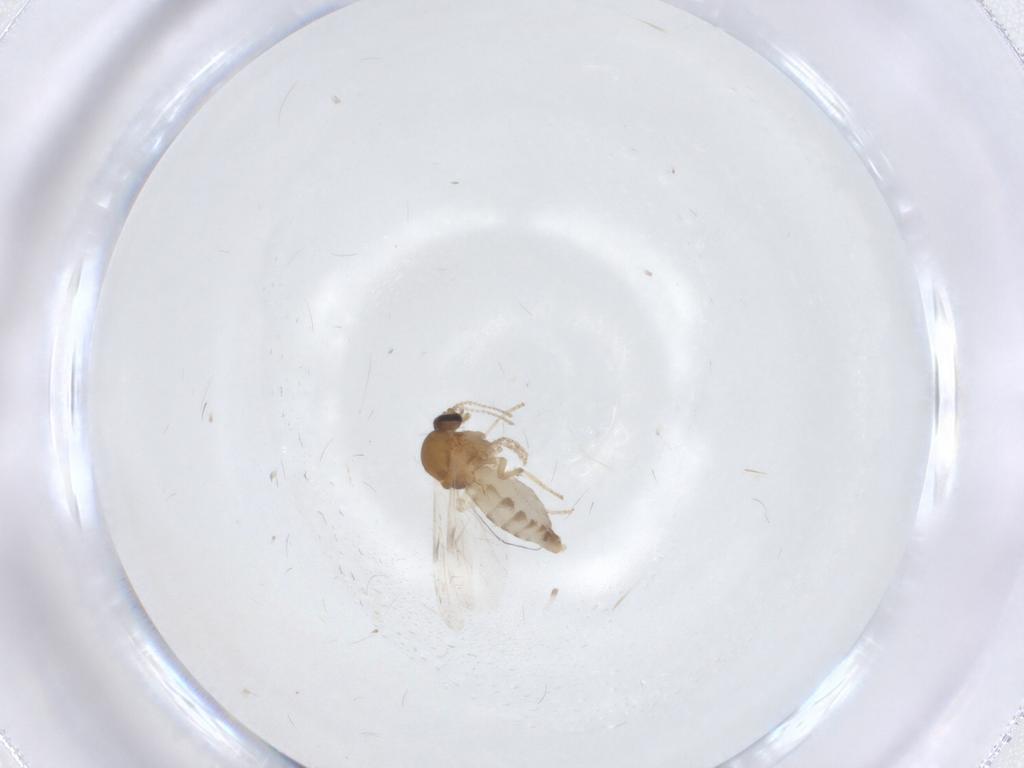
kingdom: Animalia
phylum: Arthropoda
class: Insecta
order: Diptera
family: Ceratopogonidae
